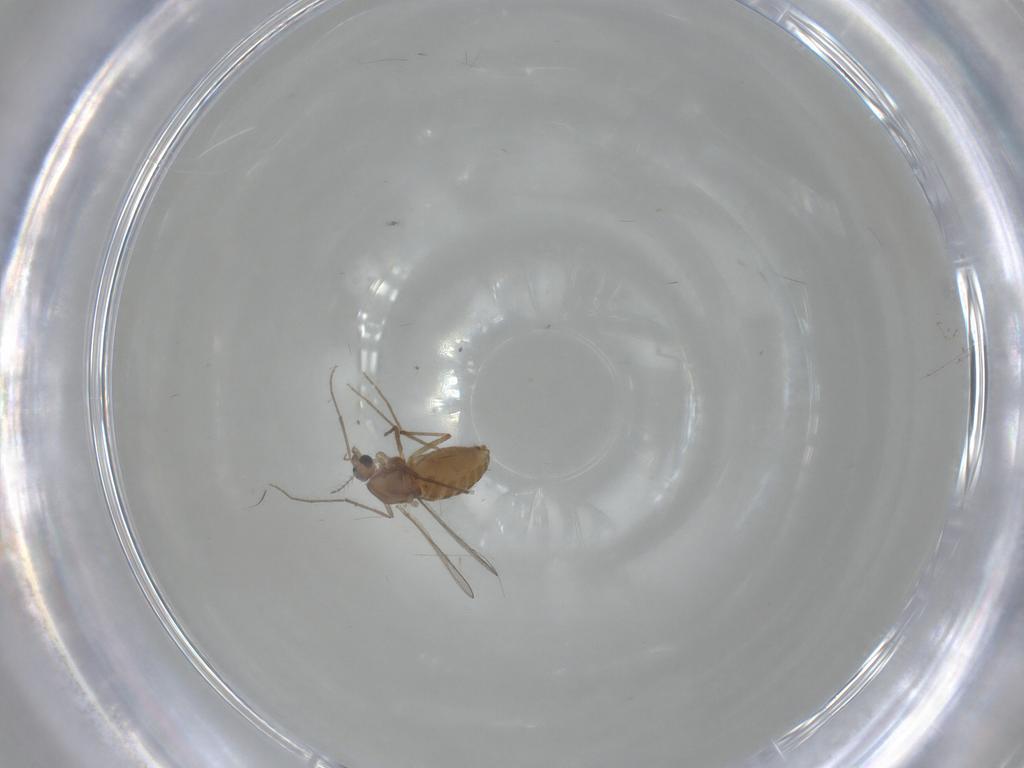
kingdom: Animalia
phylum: Arthropoda
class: Insecta
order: Diptera
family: Chironomidae
